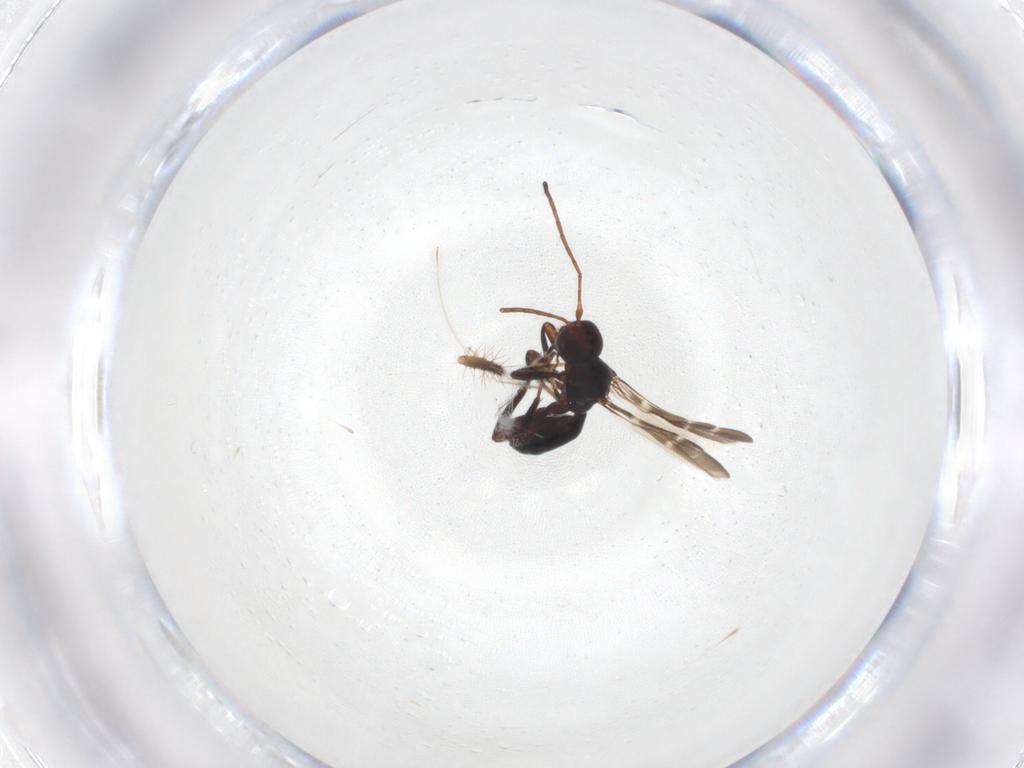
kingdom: Animalia
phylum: Arthropoda
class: Insecta
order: Hymenoptera
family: Braconidae
